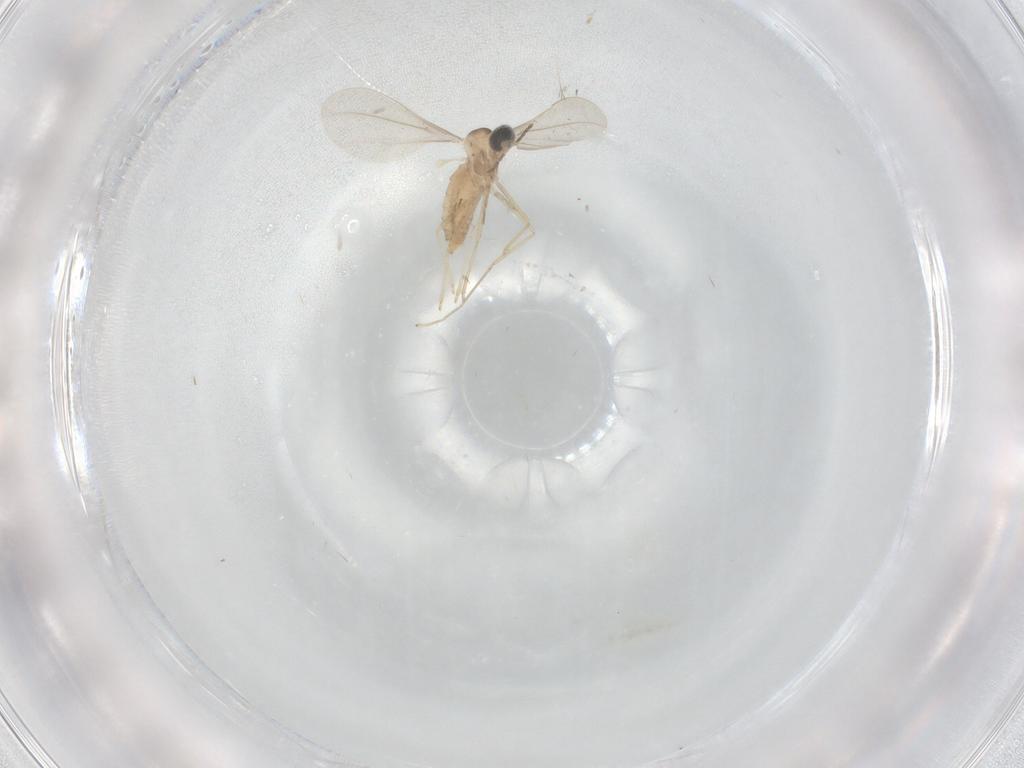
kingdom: Animalia
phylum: Arthropoda
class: Insecta
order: Diptera
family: Cecidomyiidae
